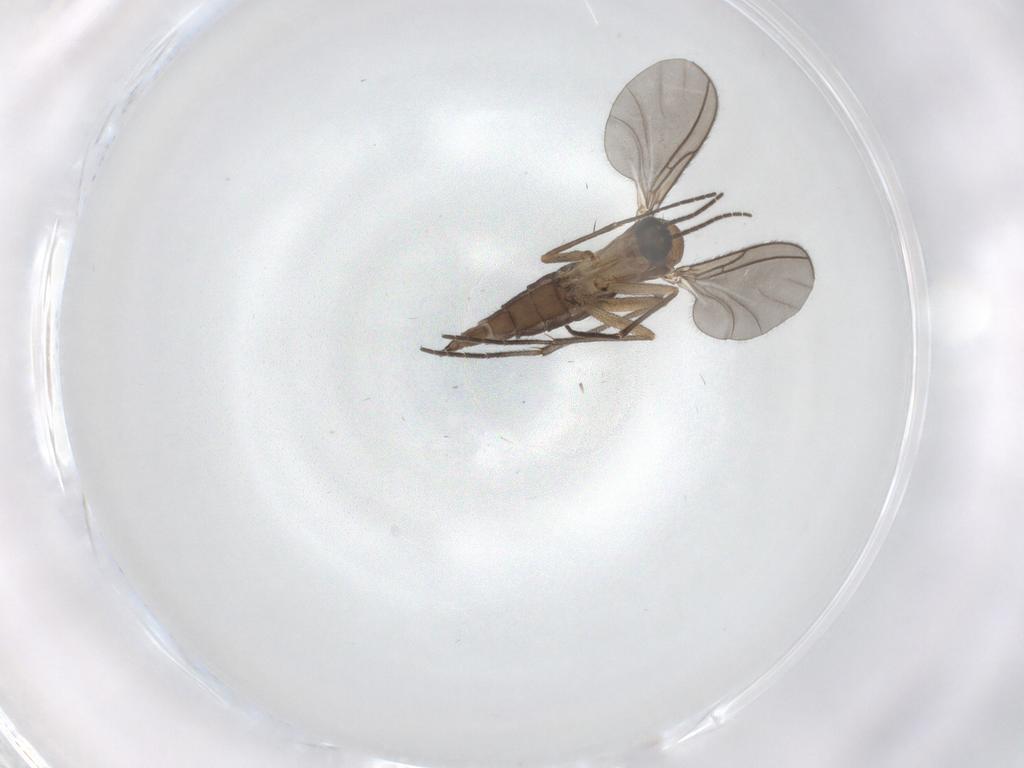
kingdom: Animalia
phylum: Arthropoda
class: Insecta
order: Diptera
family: Sciaridae
